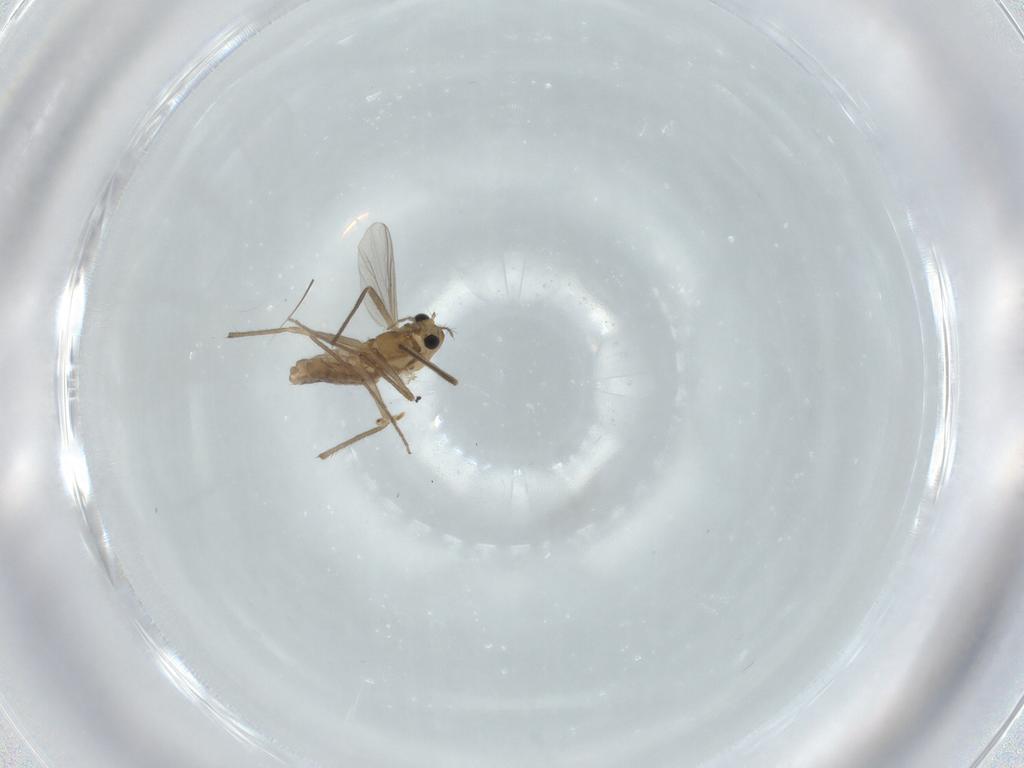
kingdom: Animalia
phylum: Arthropoda
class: Insecta
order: Diptera
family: Chironomidae
